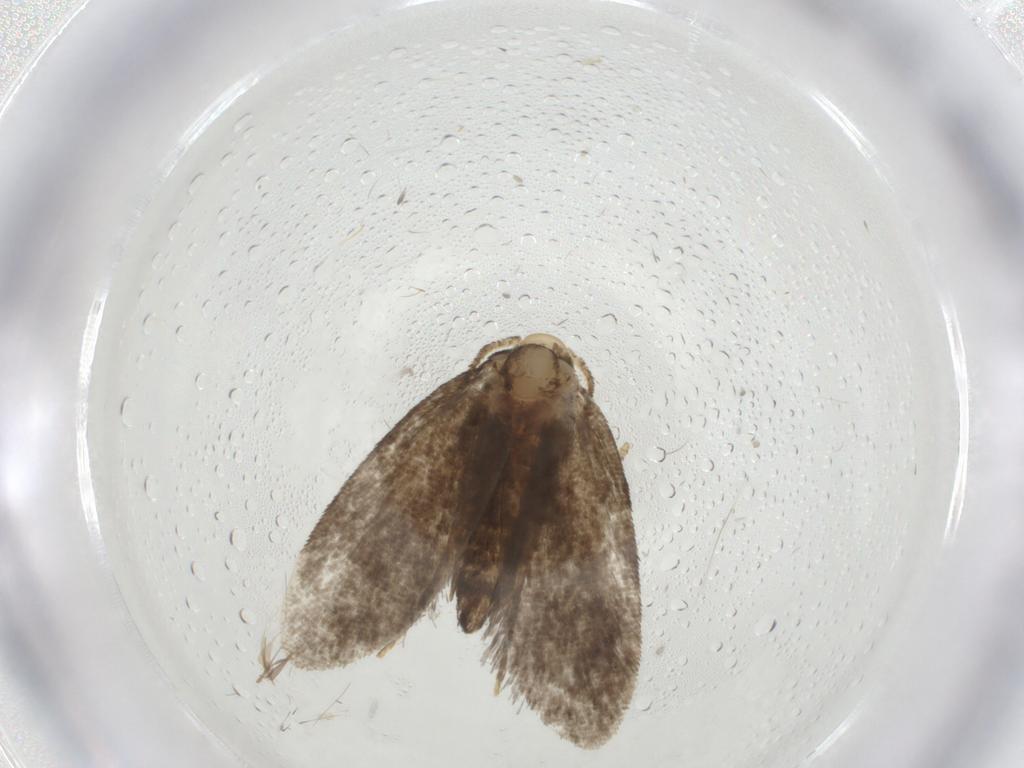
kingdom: Animalia
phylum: Arthropoda
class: Insecta
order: Lepidoptera
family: Psychidae
